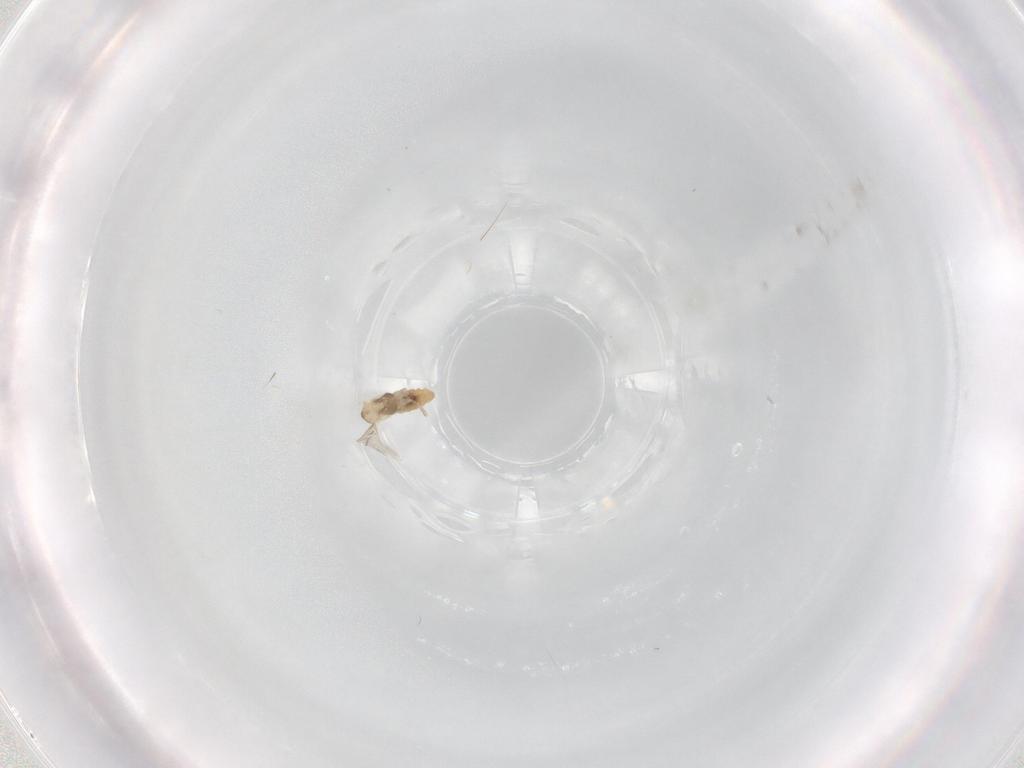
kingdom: Animalia
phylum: Arthropoda
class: Insecta
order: Diptera
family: Cecidomyiidae
